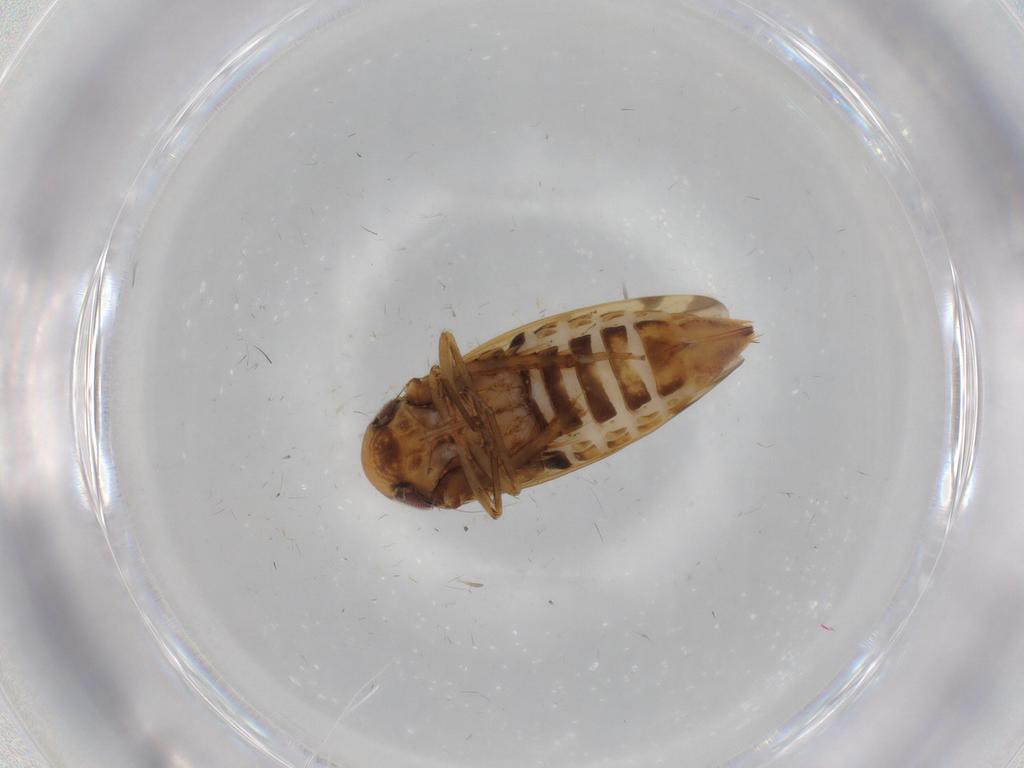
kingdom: Animalia
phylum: Arthropoda
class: Insecta
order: Hemiptera
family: Cicadellidae
